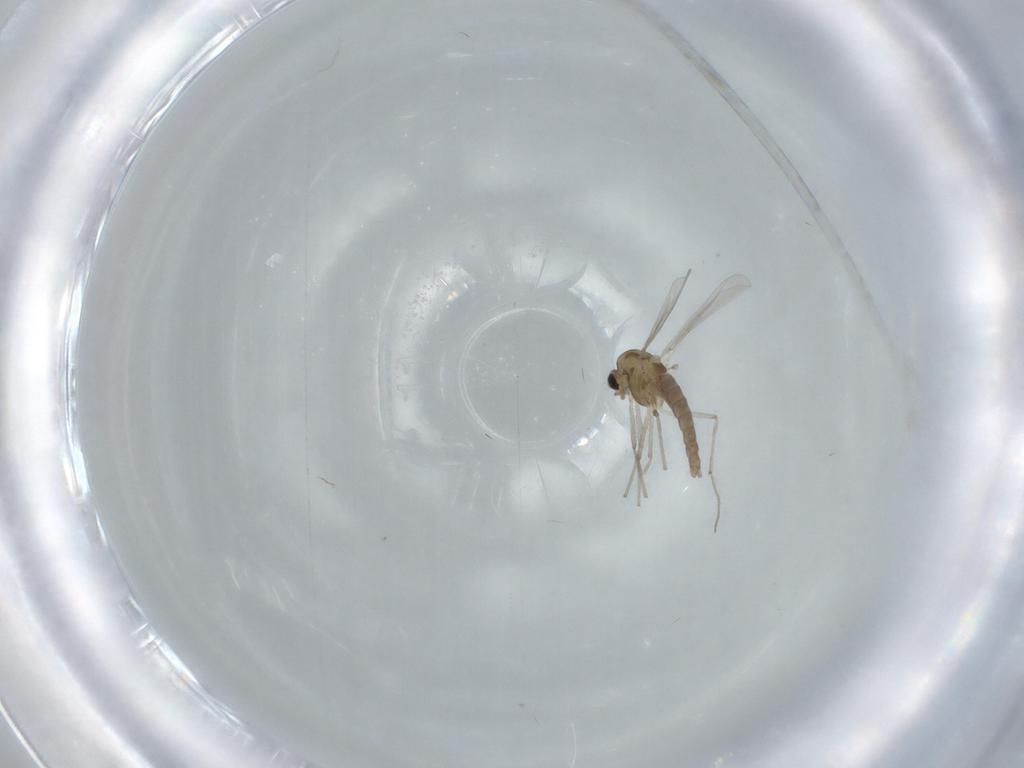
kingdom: Animalia
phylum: Arthropoda
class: Insecta
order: Diptera
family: Chironomidae
